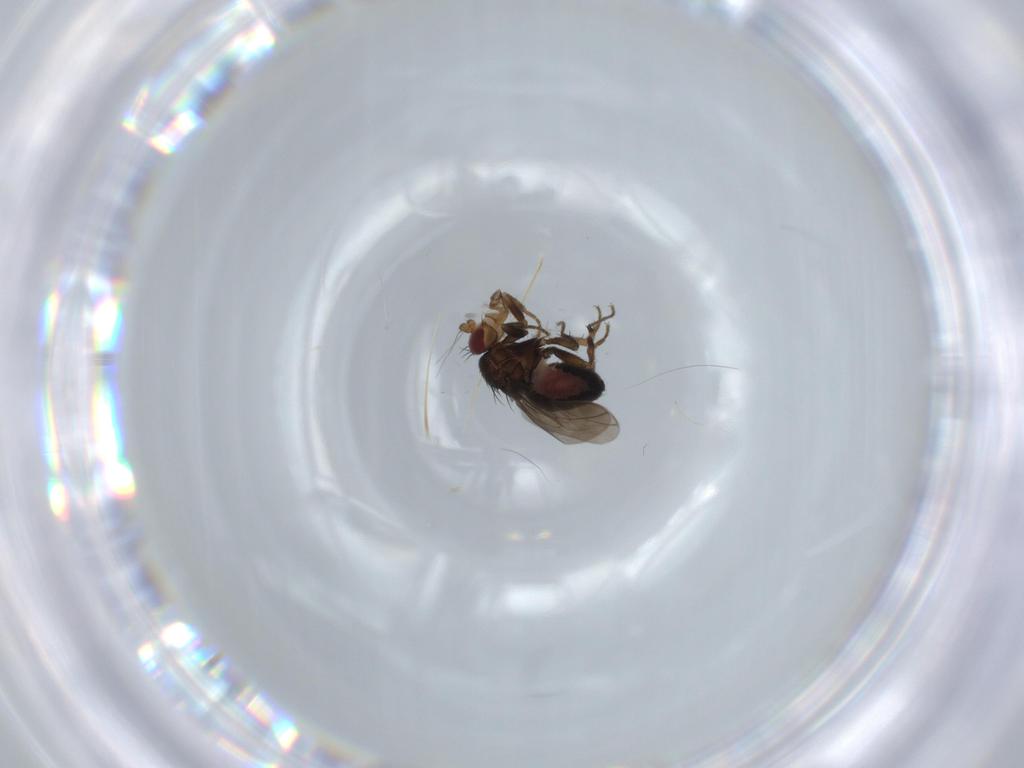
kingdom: Animalia
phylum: Arthropoda
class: Insecta
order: Diptera
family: Sphaeroceridae
